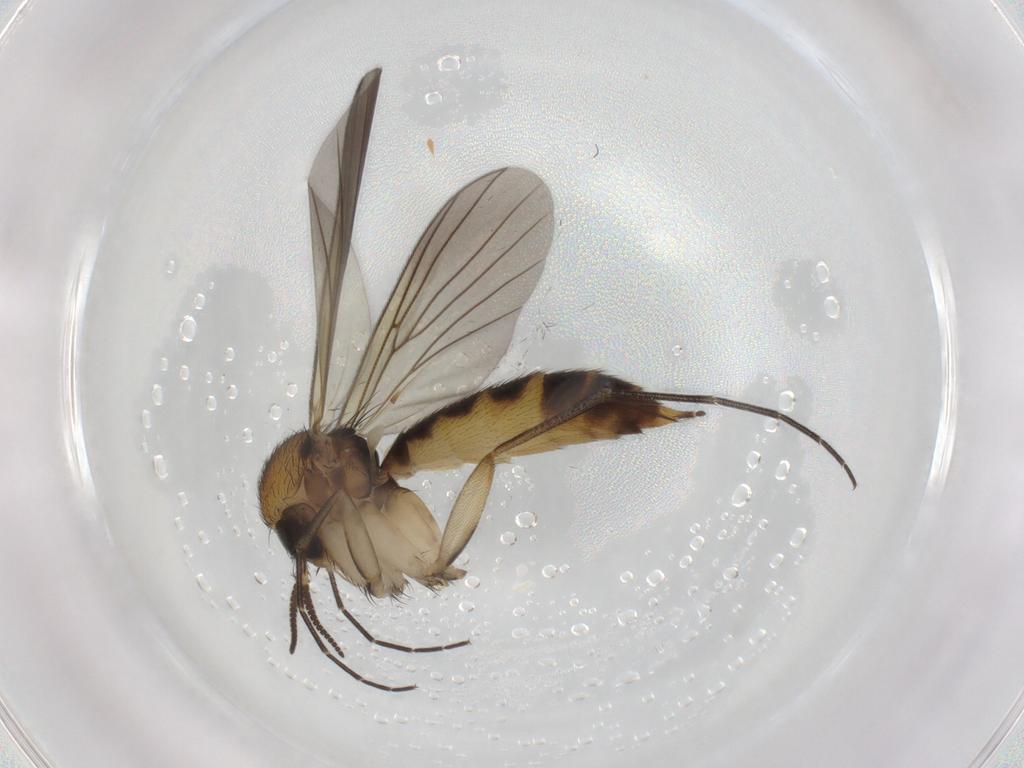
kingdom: Animalia
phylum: Arthropoda
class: Insecta
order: Diptera
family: Mycetophilidae
